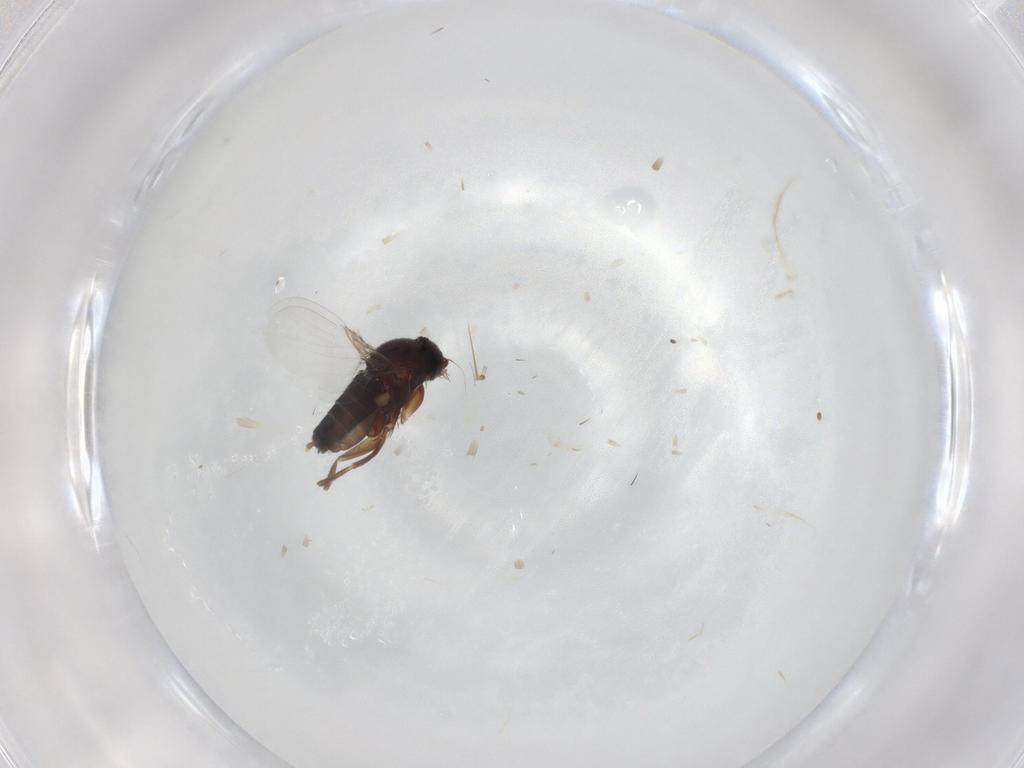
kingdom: Animalia
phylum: Arthropoda
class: Insecta
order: Diptera
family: Phoridae
